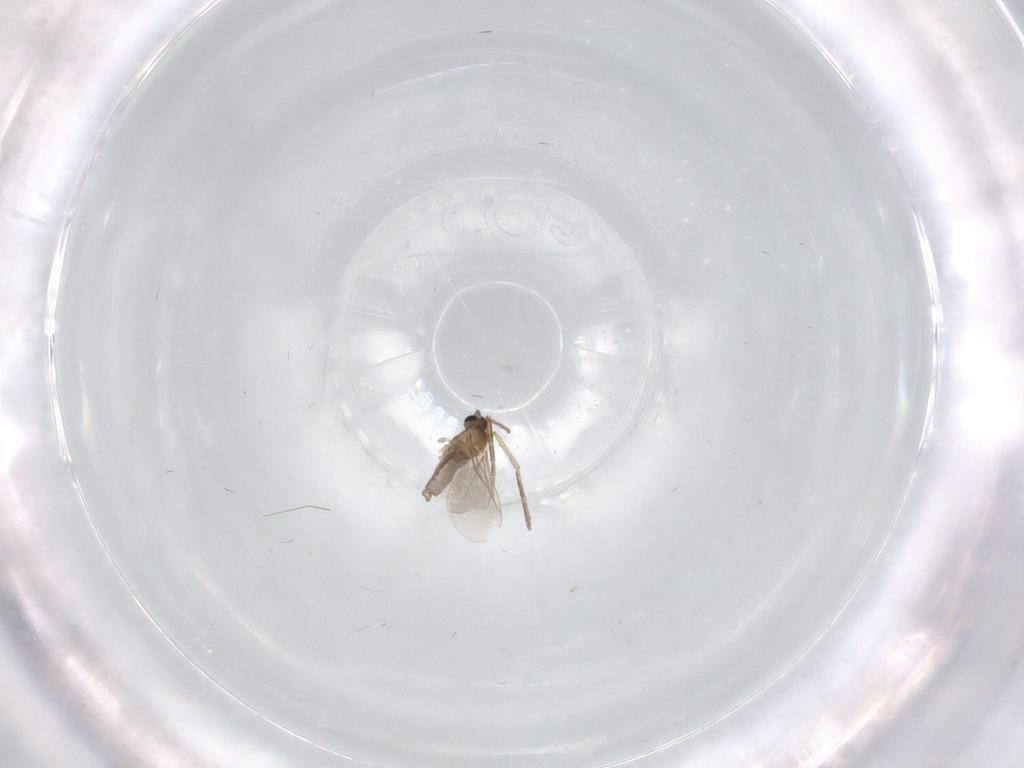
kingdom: Animalia
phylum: Arthropoda
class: Insecta
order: Diptera
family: Cecidomyiidae
